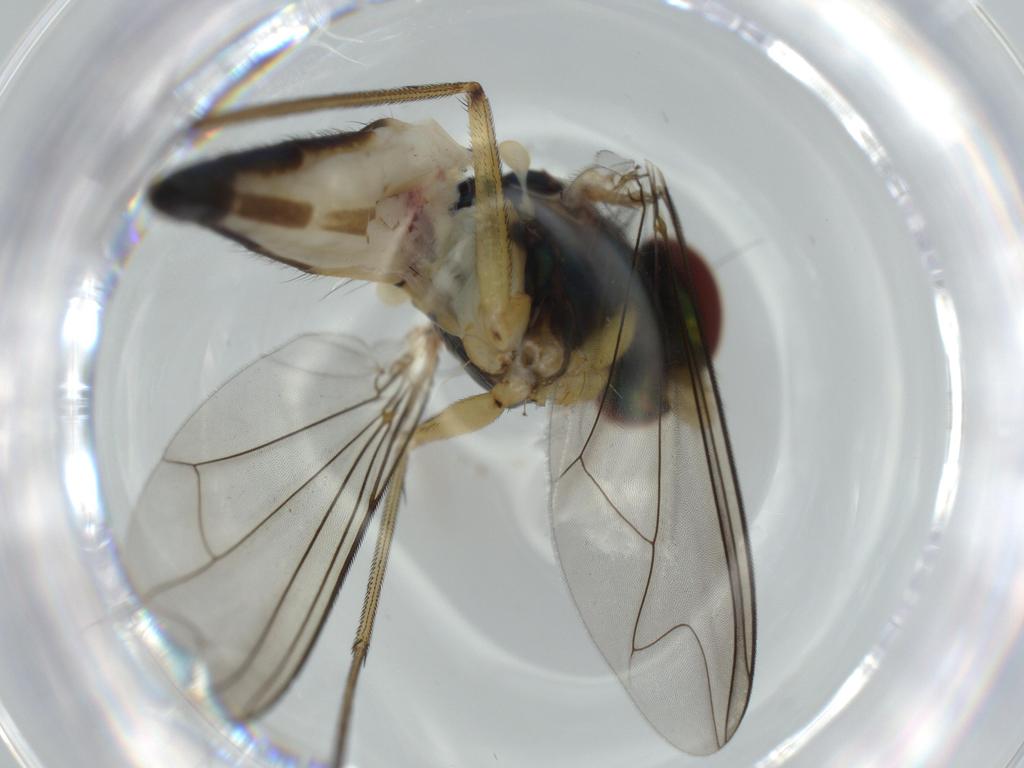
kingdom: Animalia
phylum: Arthropoda
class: Insecta
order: Diptera
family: Dolichopodidae
